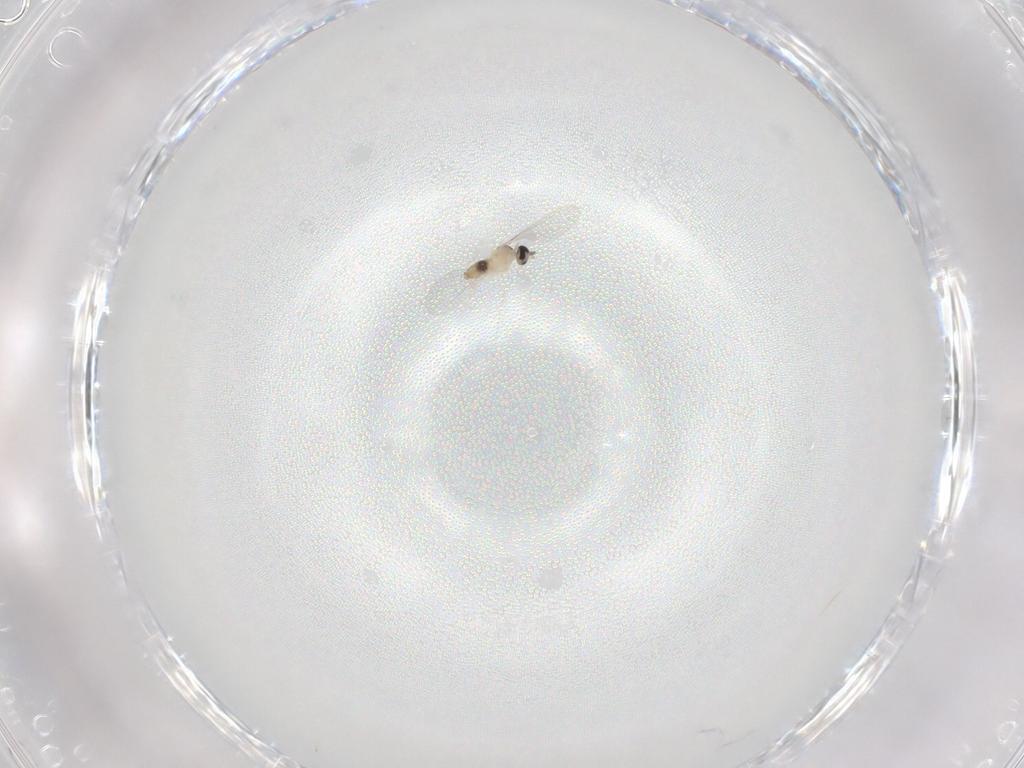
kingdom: Animalia
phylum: Arthropoda
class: Insecta
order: Diptera
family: Cecidomyiidae
